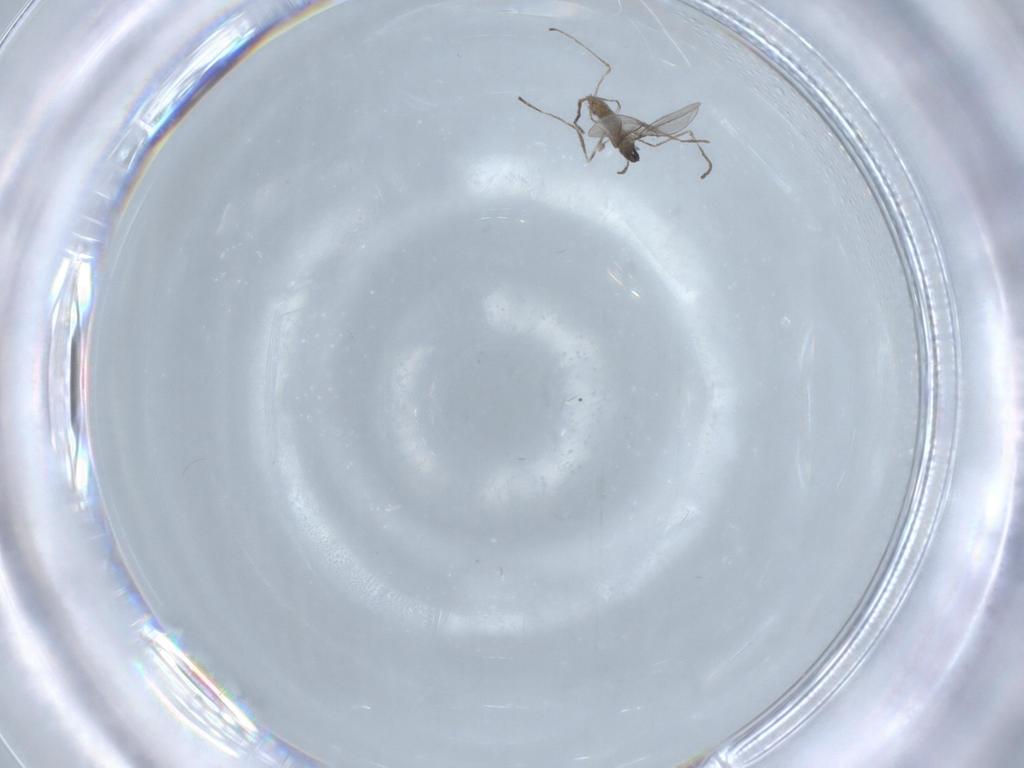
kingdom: Animalia
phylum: Arthropoda
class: Insecta
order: Diptera
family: Cecidomyiidae
